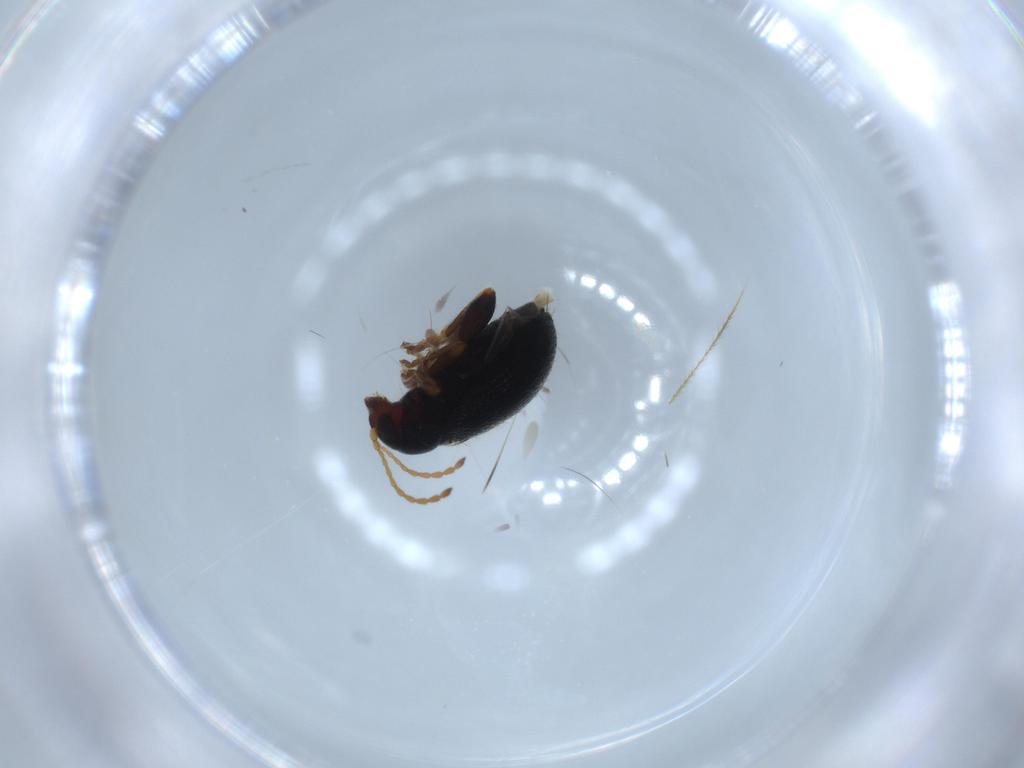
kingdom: Animalia
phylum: Arthropoda
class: Insecta
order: Coleoptera
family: Chrysomelidae
